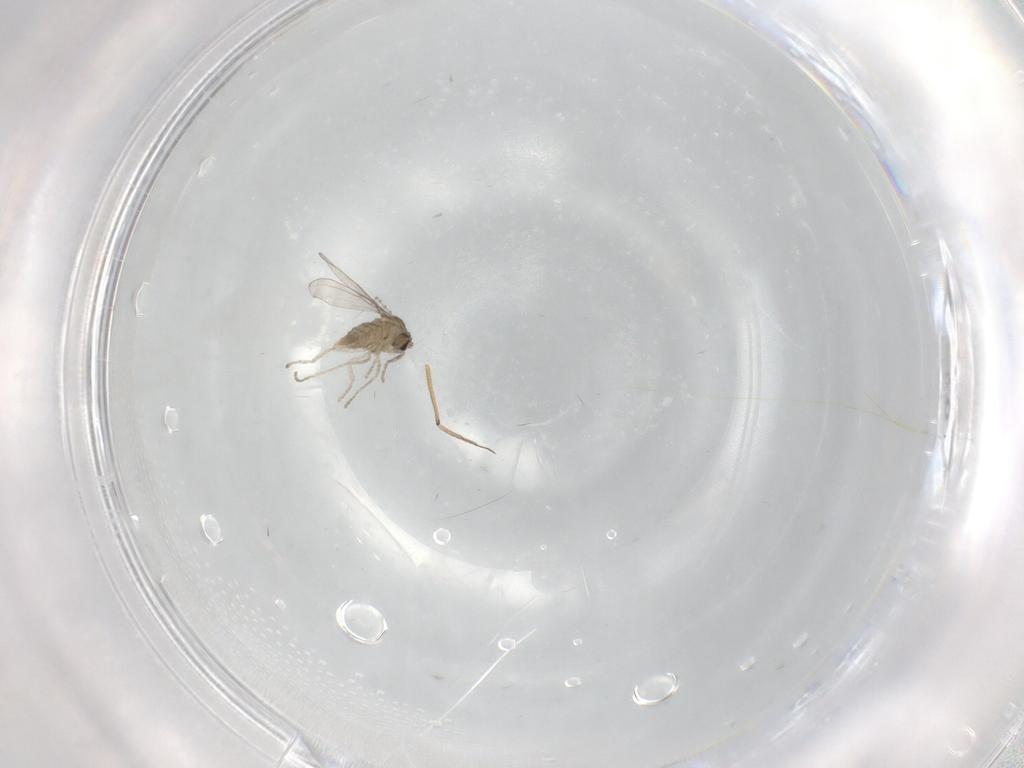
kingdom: Animalia
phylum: Arthropoda
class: Insecta
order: Diptera
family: Cecidomyiidae
